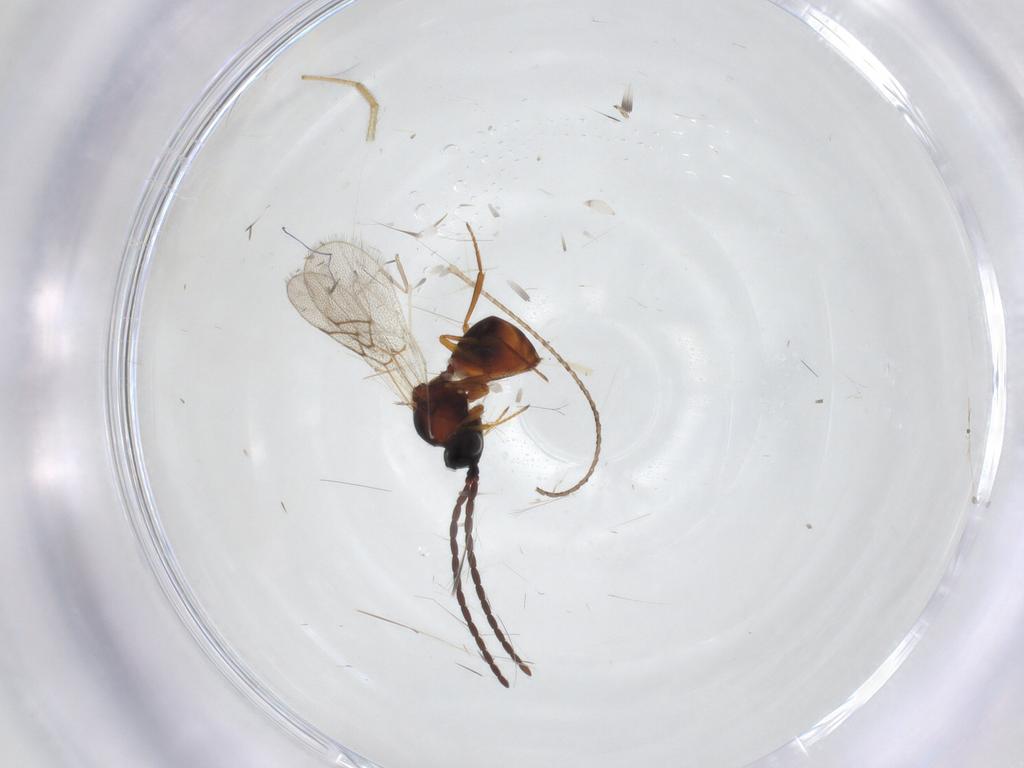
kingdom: Animalia
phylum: Arthropoda
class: Insecta
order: Hymenoptera
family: Figitidae
